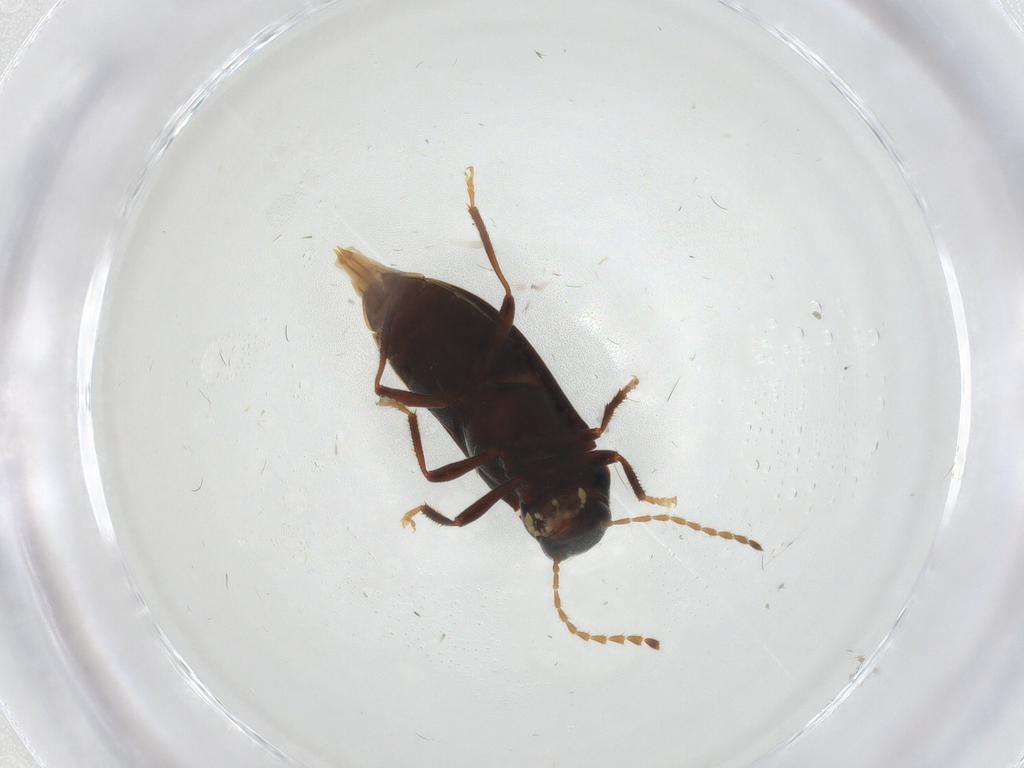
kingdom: Animalia
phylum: Arthropoda
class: Insecta
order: Coleoptera
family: Ptilodactylidae
